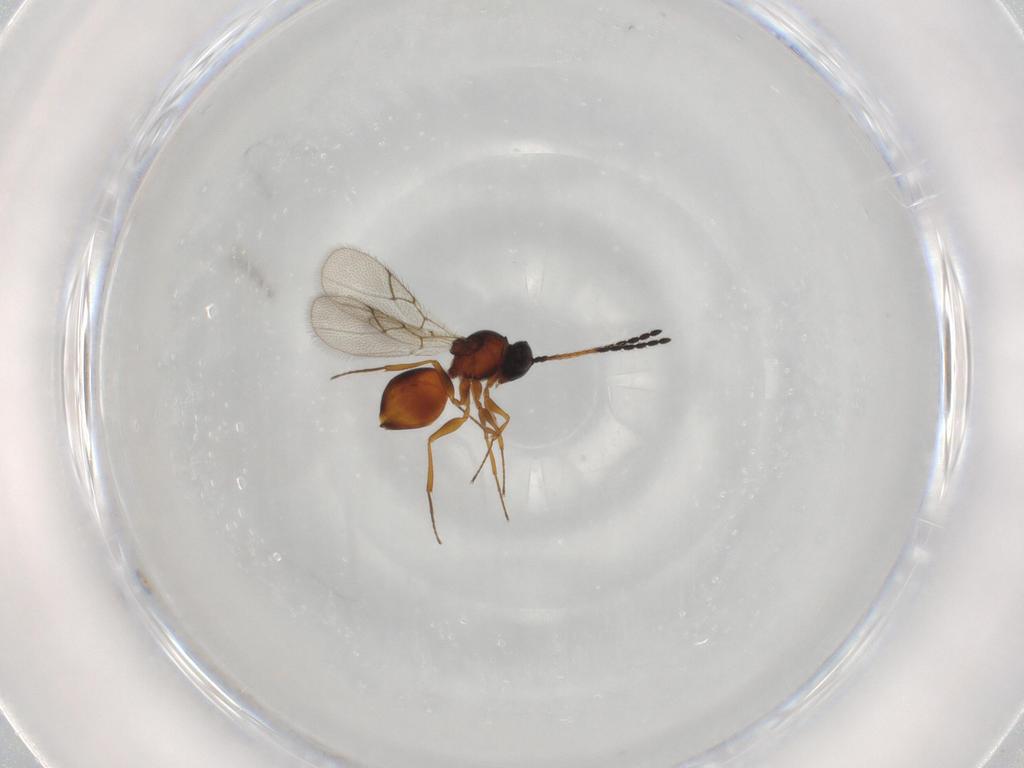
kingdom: Animalia
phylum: Arthropoda
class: Insecta
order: Hymenoptera
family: Figitidae
